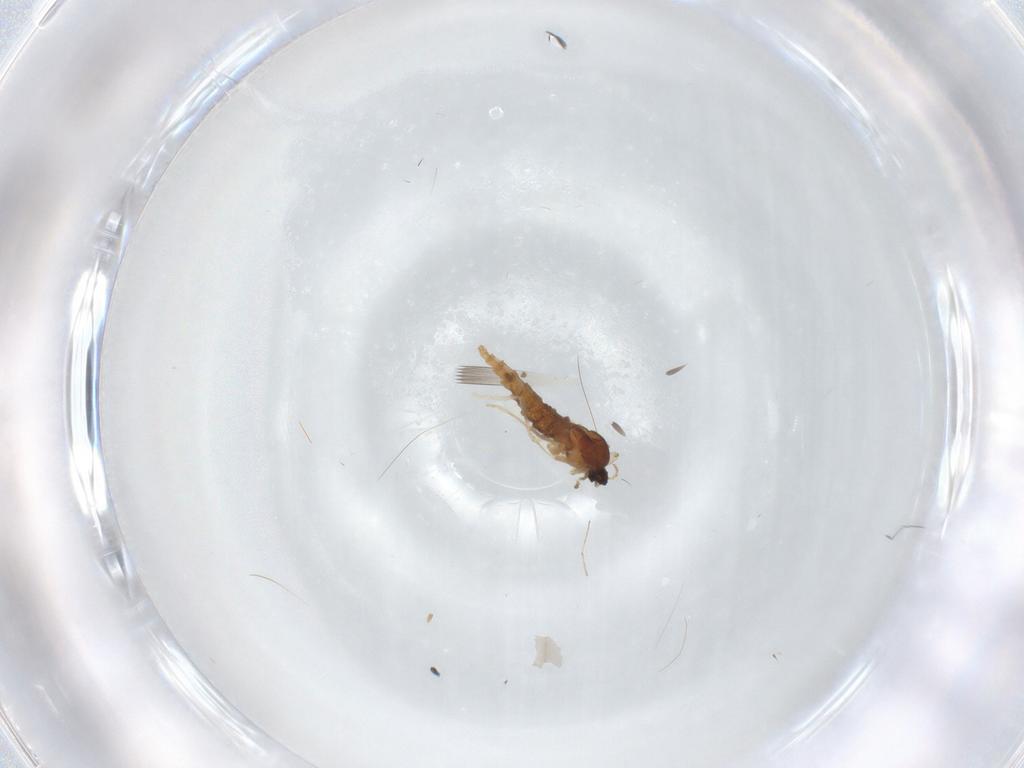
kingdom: Animalia
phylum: Arthropoda
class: Insecta
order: Diptera
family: Cecidomyiidae
